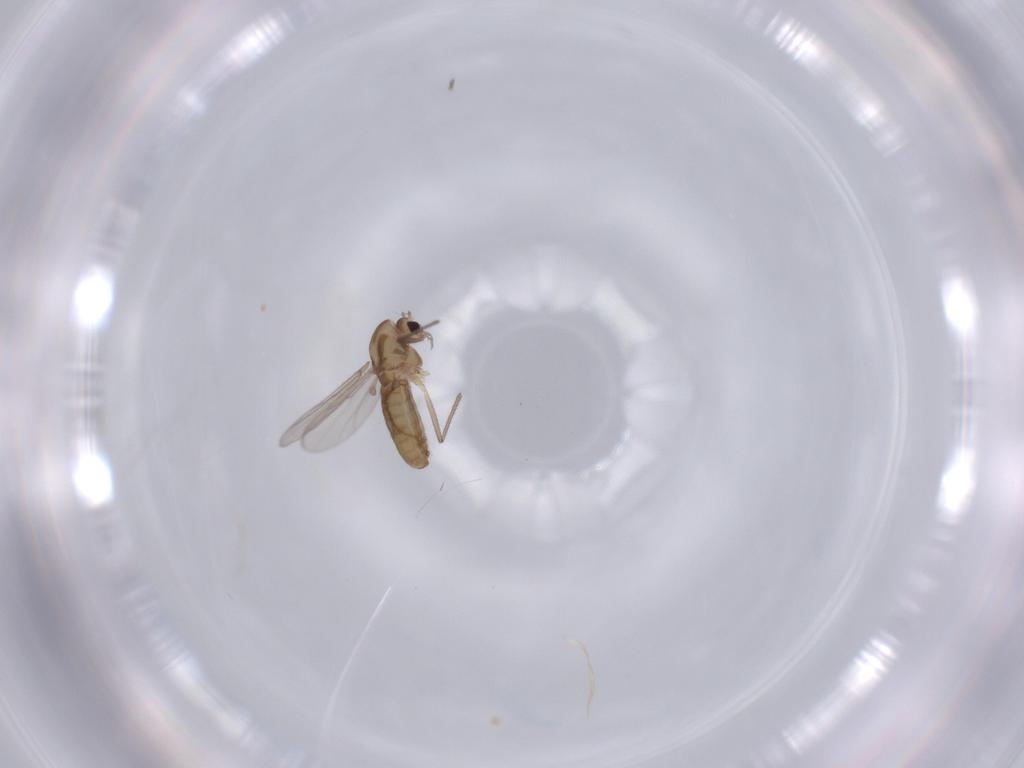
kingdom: Animalia
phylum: Arthropoda
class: Insecta
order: Diptera
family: Chironomidae
